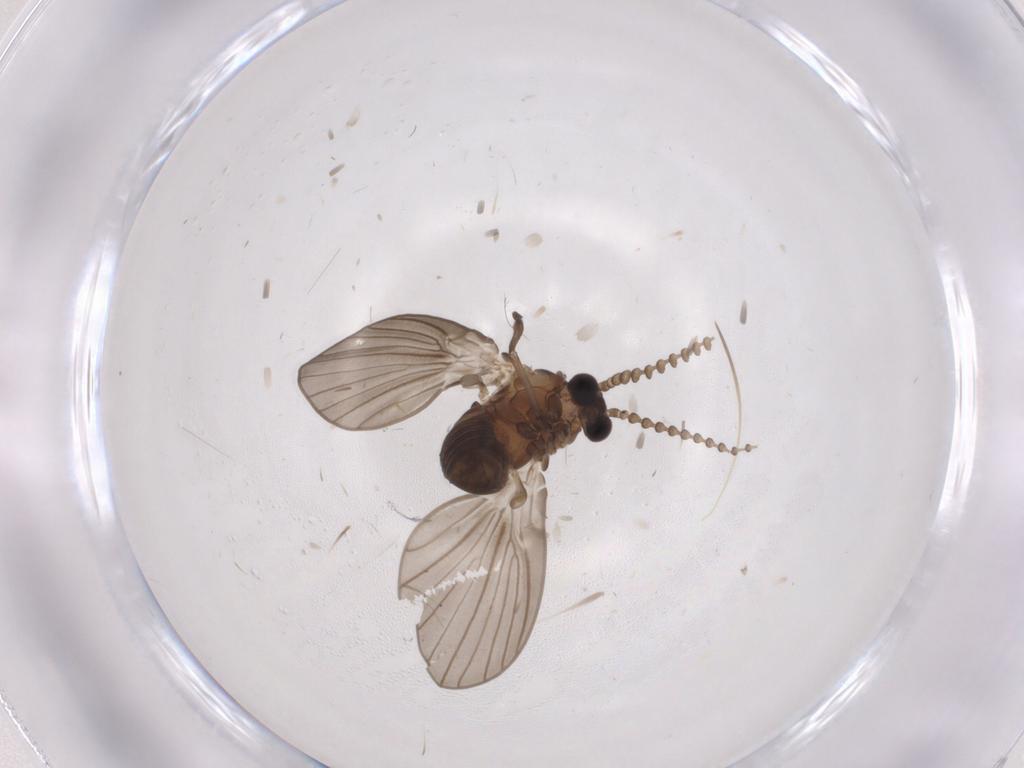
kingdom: Animalia
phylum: Arthropoda
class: Insecta
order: Diptera
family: Psychodidae
